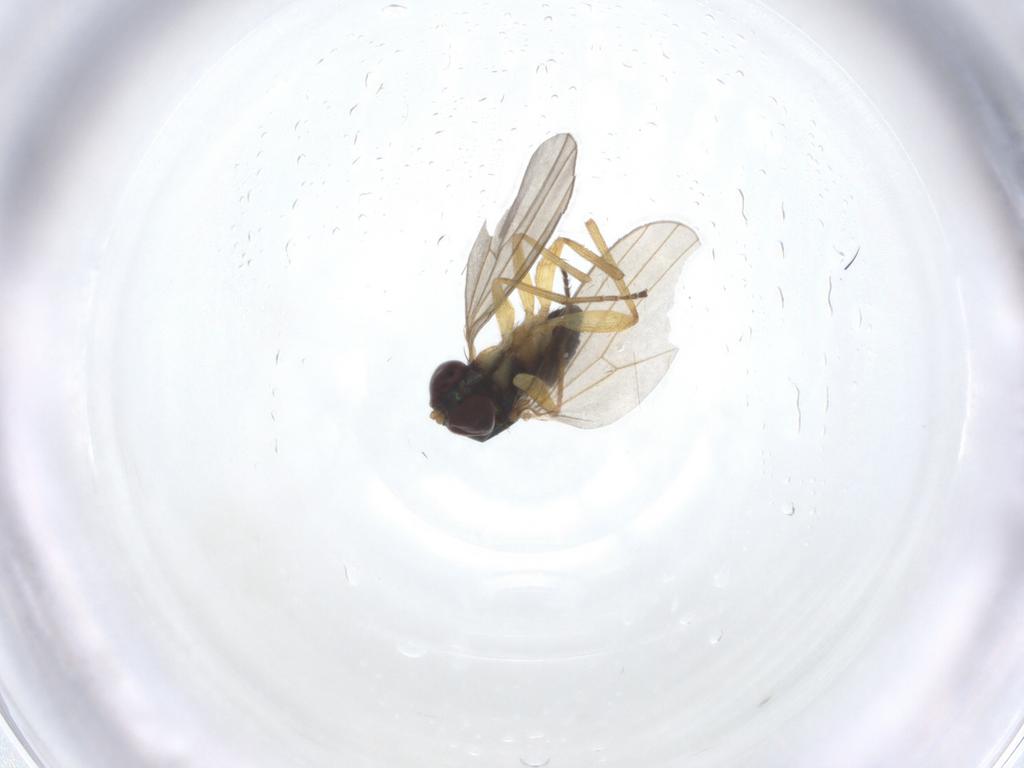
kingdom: Animalia
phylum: Arthropoda
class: Insecta
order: Diptera
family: Dolichopodidae
